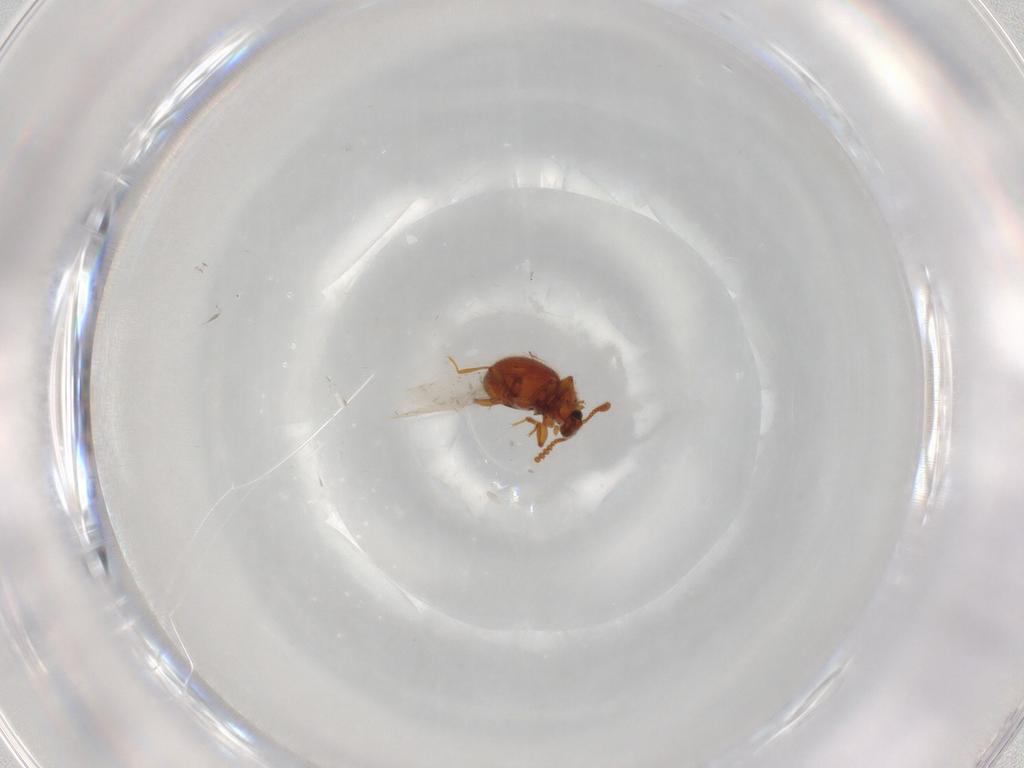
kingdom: Animalia
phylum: Arthropoda
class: Insecta
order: Coleoptera
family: Staphylinidae
